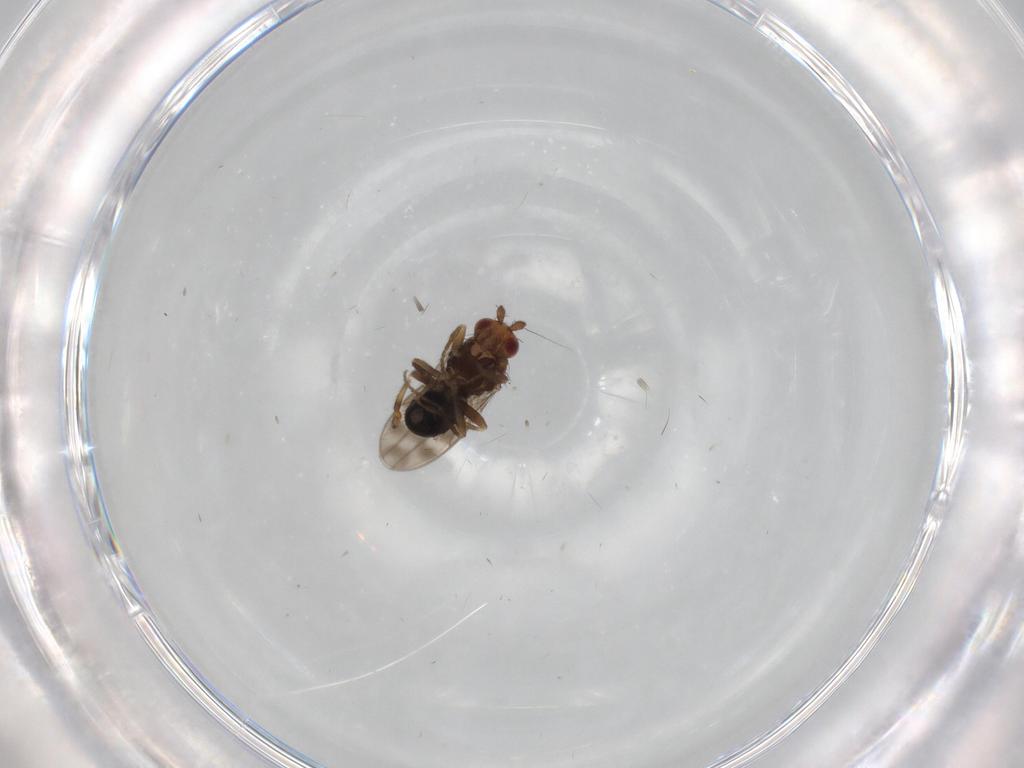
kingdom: Animalia
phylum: Arthropoda
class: Insecta
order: Diptera
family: Sphaeroceridae
